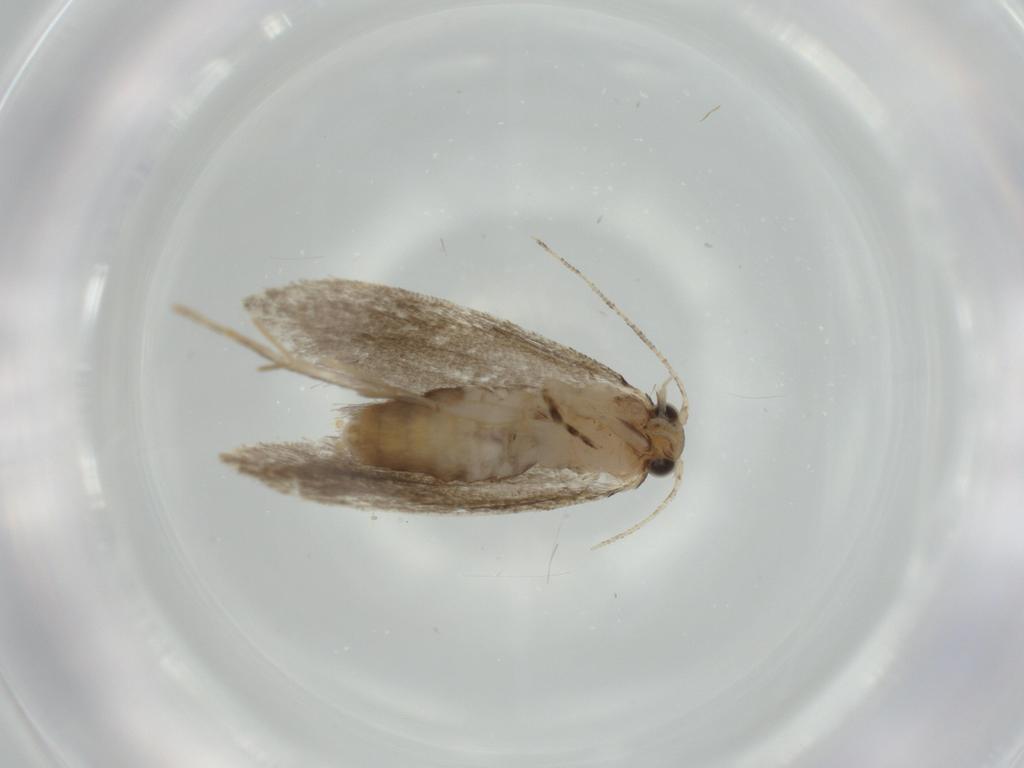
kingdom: Animalia
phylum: Arthropoda
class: Insecta
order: Lepidoptera
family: Tineidae
